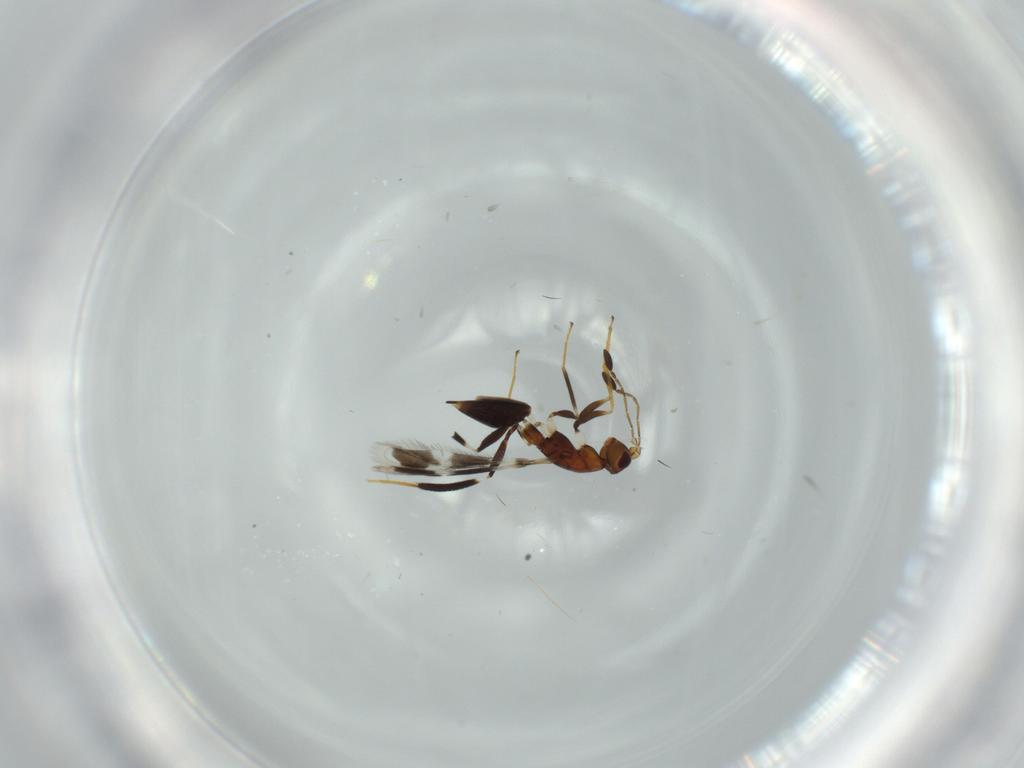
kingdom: Animalia
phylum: Arthropoda
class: Insecta
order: Hymenoptera
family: Mymaridae
